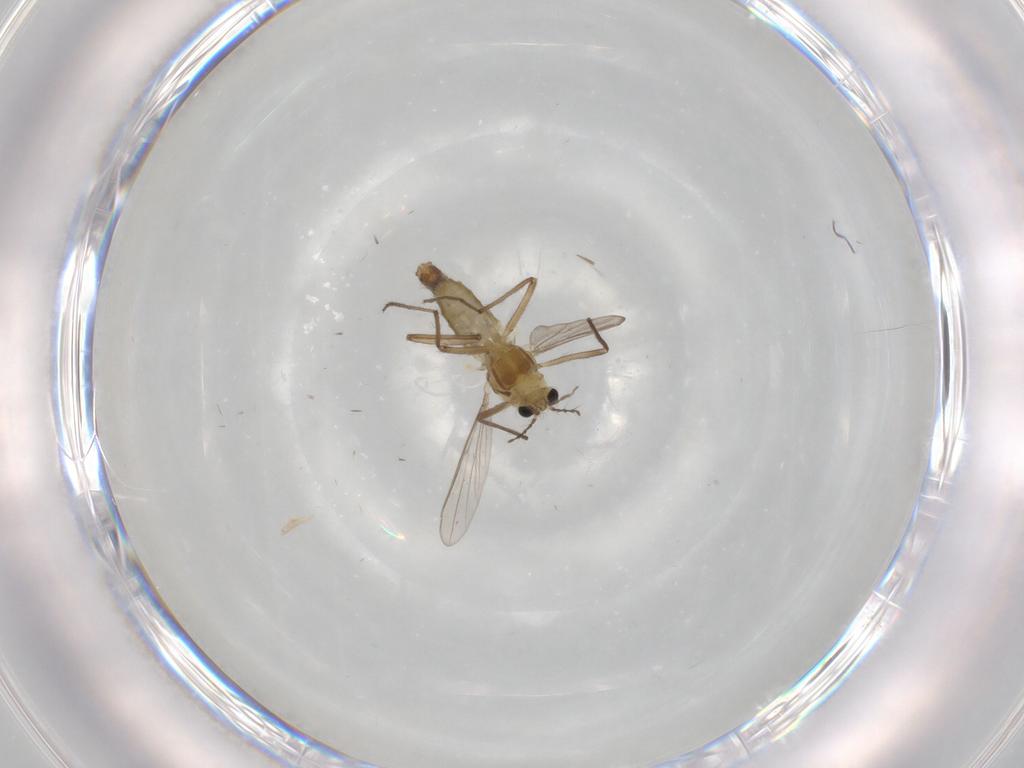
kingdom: Animalia
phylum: Arthropoda
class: Insecta
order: Diptera
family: Chironomidae
